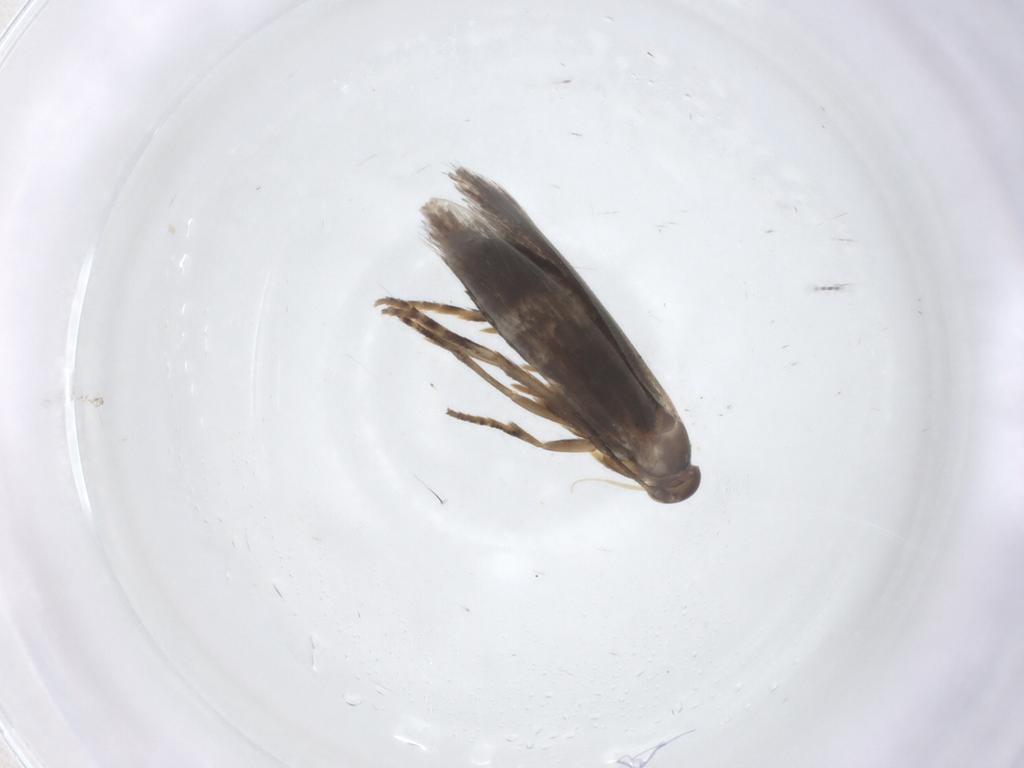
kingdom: Animalia
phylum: Arthropoda
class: Insecta
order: Lepidoptera
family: Elachistidae
